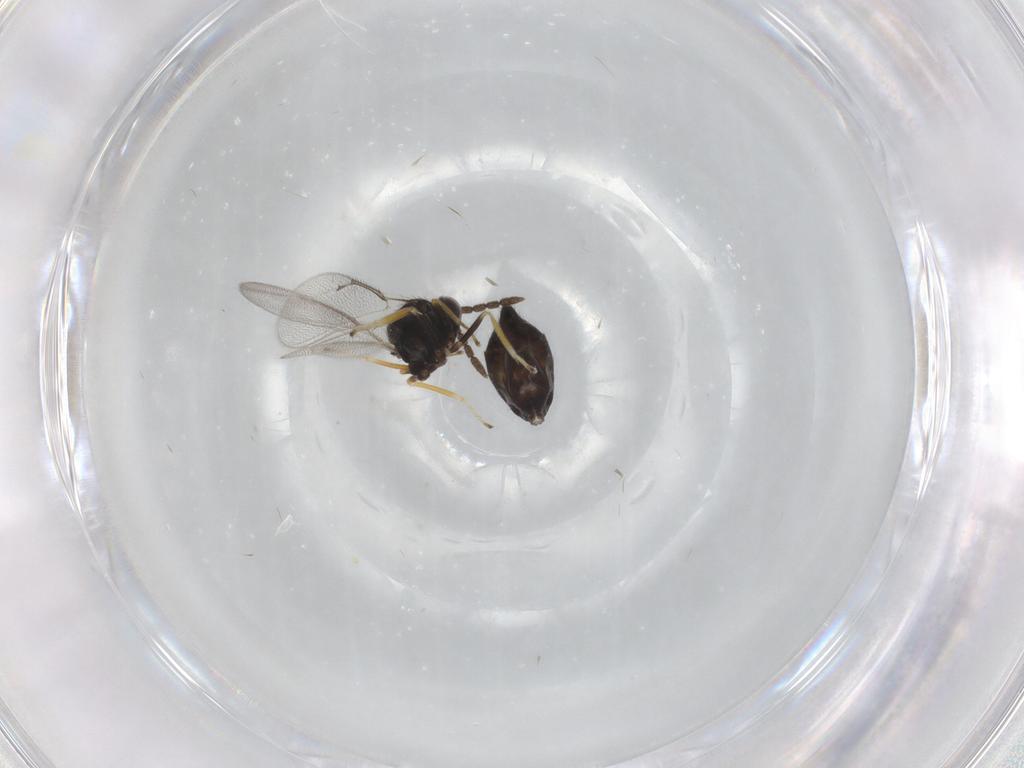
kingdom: Animalia
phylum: Arthropoda
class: Insecta
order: Hymenoptera
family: Eulophidae
